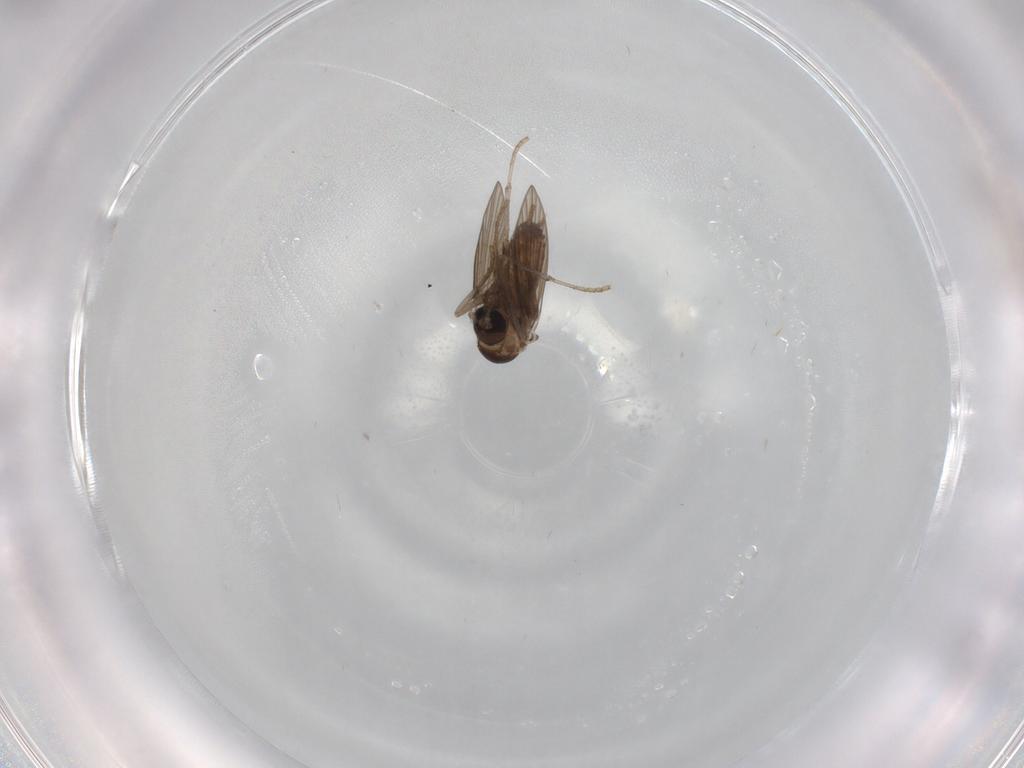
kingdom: Animalia
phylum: Arthropoda
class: Insecta
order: Diptera
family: Psychodidae
